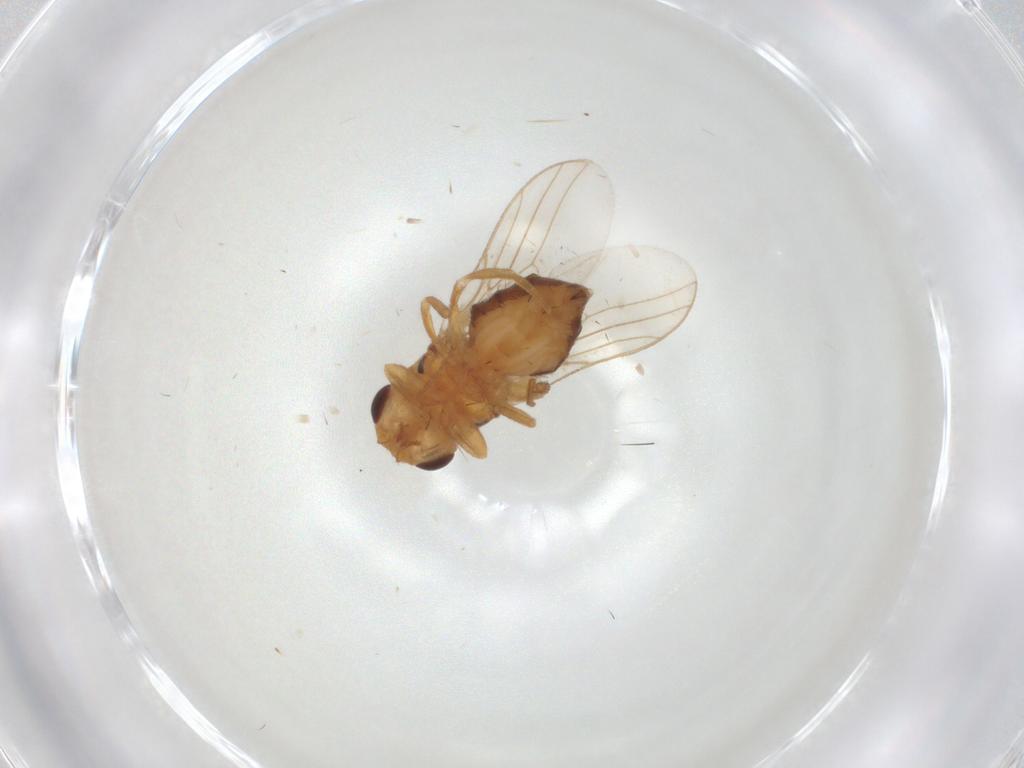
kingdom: Animalia
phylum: Arthropoda
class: Insecta
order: Diptera
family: Chloropidae
